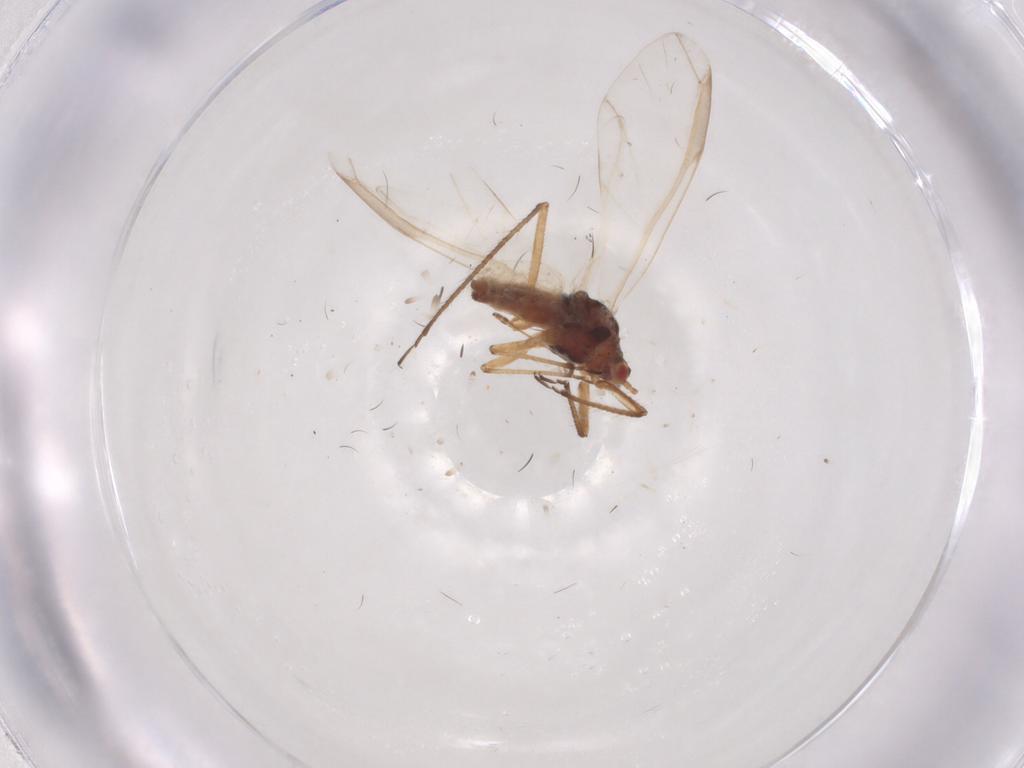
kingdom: Animalia
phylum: Arthropoda
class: Insecta
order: Hemiptera
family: Lachnidae
